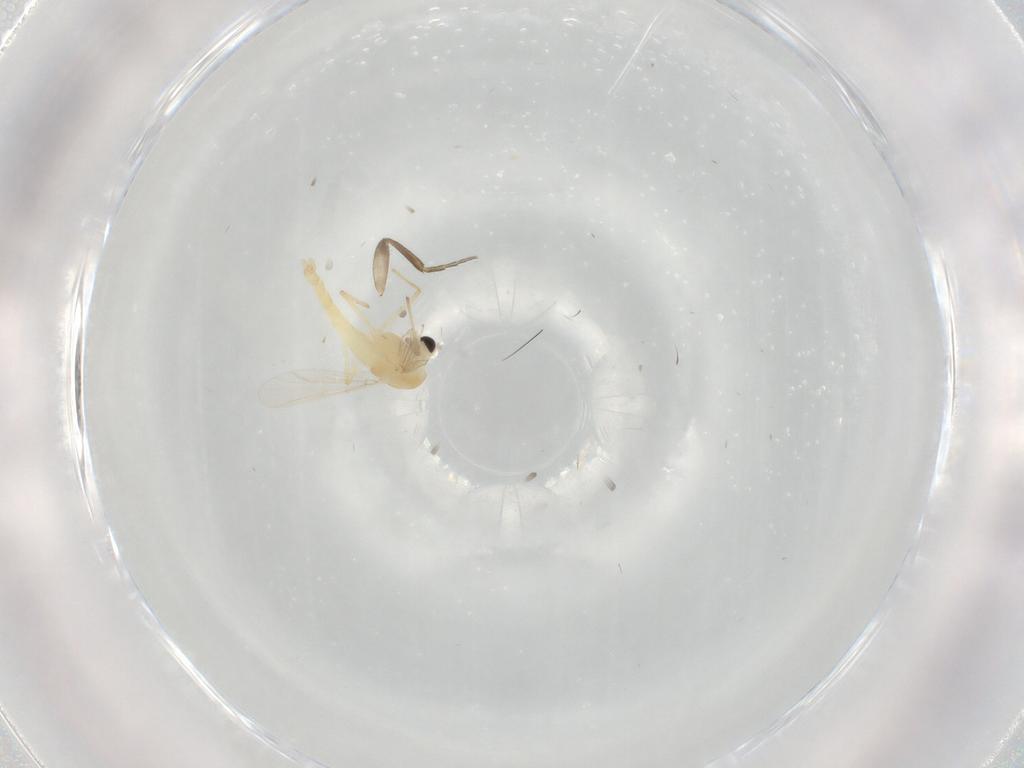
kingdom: Animalia
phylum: Arthropoda
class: Insecta
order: Diptera
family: Chironomidae
